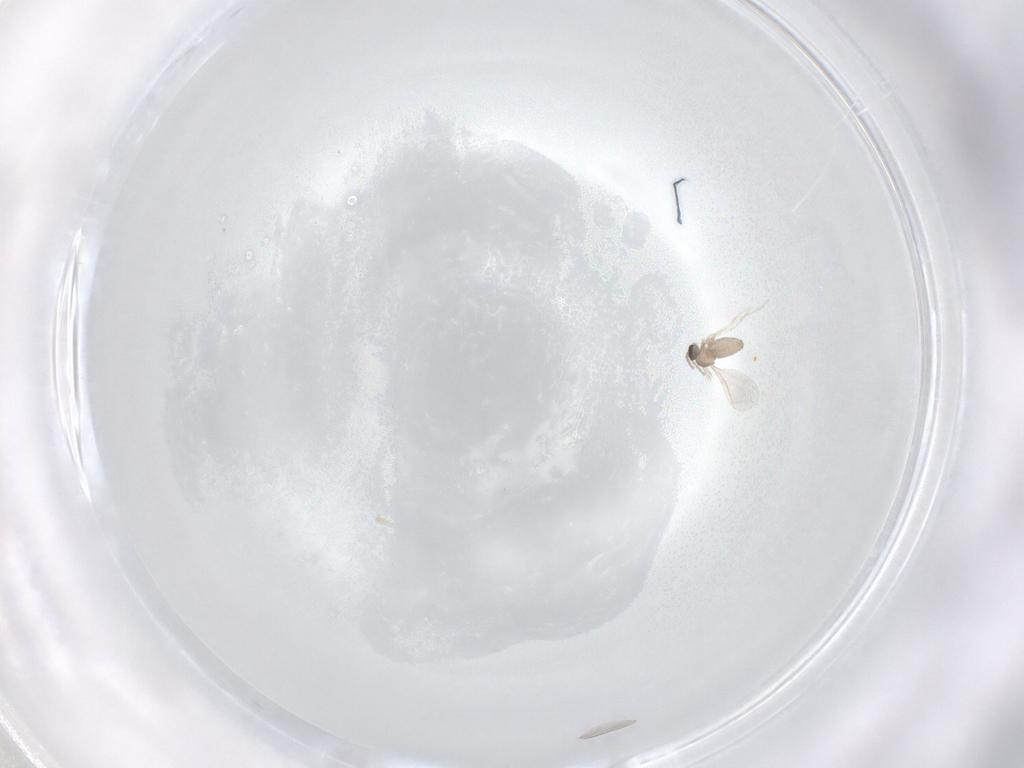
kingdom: Animalia
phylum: Arthropoda
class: Insecta
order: Diptera
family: Cecidomyiidae
